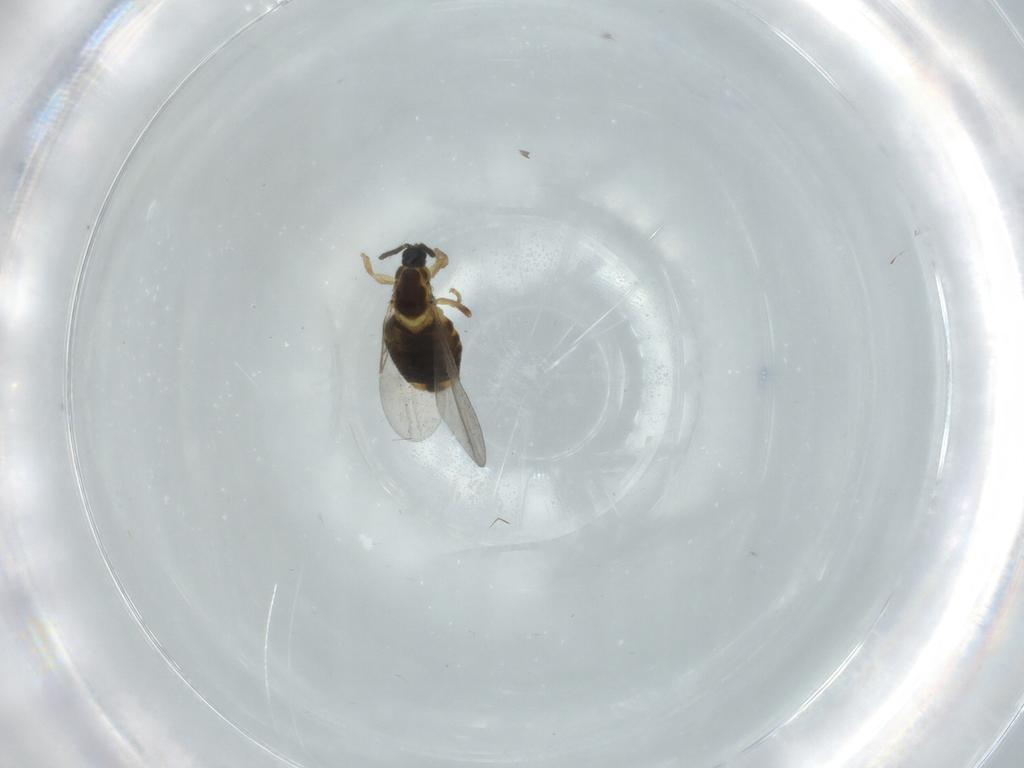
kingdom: Animalia
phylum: Arthropoda
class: Insecta
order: Diptera
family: Scatopsidae
